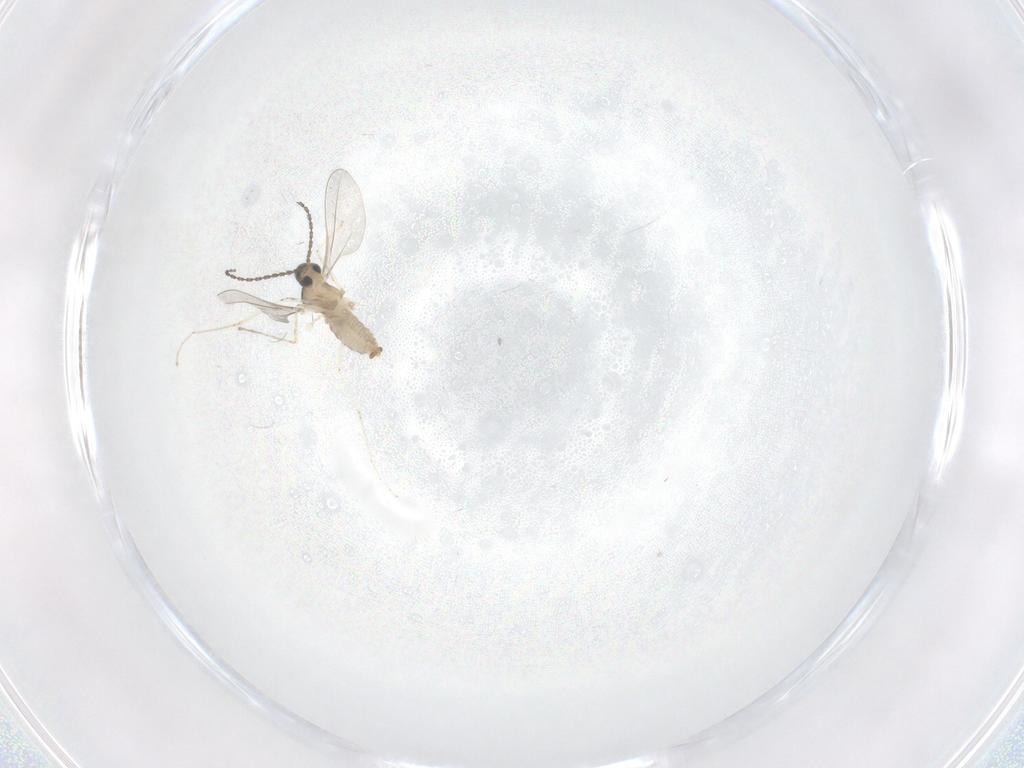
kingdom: Animalia
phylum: Arthropoda
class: Insecta
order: Diptera
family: Cecidomyiidae
